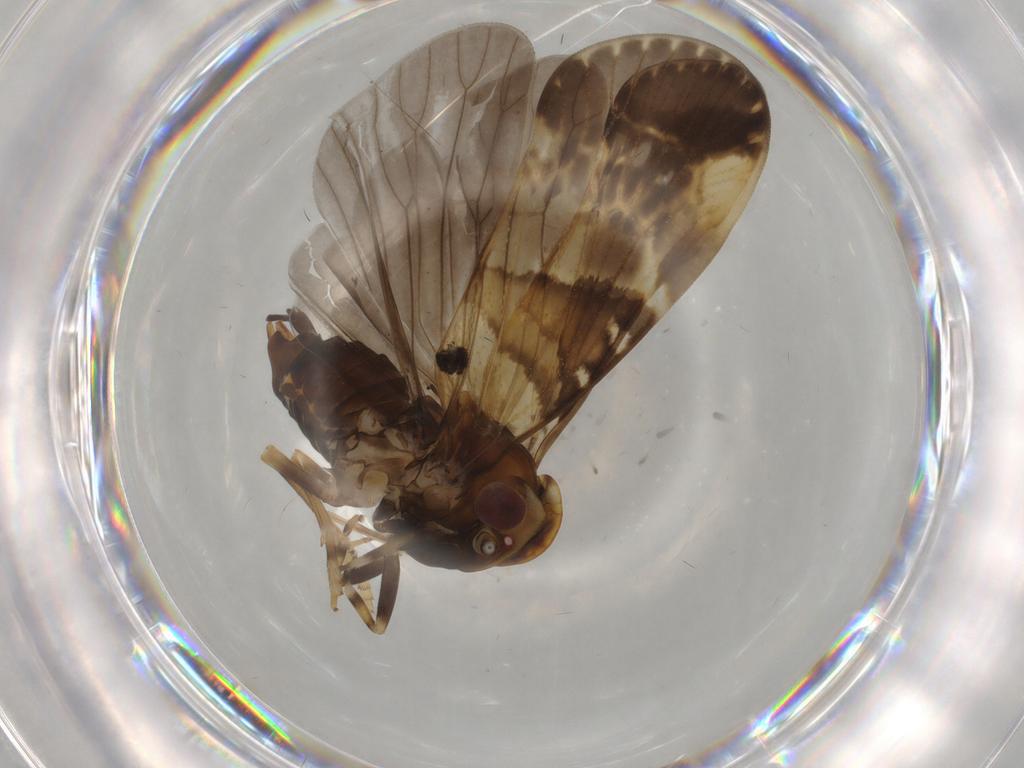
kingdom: Animalia
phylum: Arthropoda
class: Insecta
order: Hemiptera
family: Cixiidae
